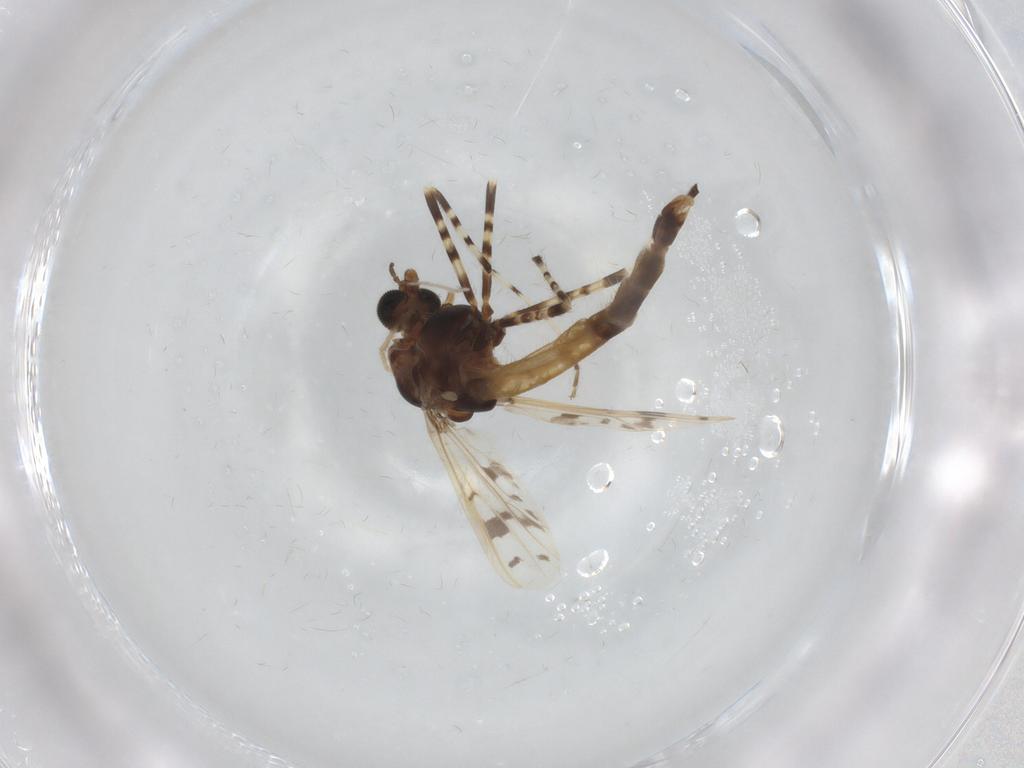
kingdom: Animalia
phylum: Arthropoda
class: Insecta
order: Diptera
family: Chironomidae
